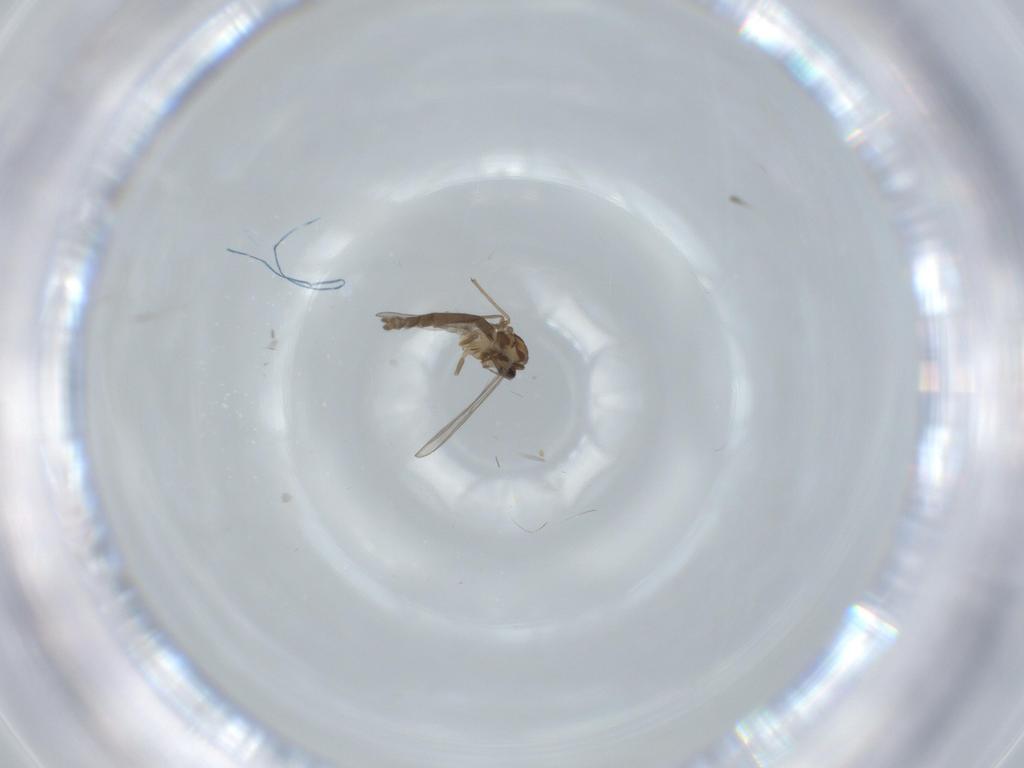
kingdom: Animalia
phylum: Arthropoda
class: Insecta
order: Diptera
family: Chironomidae
